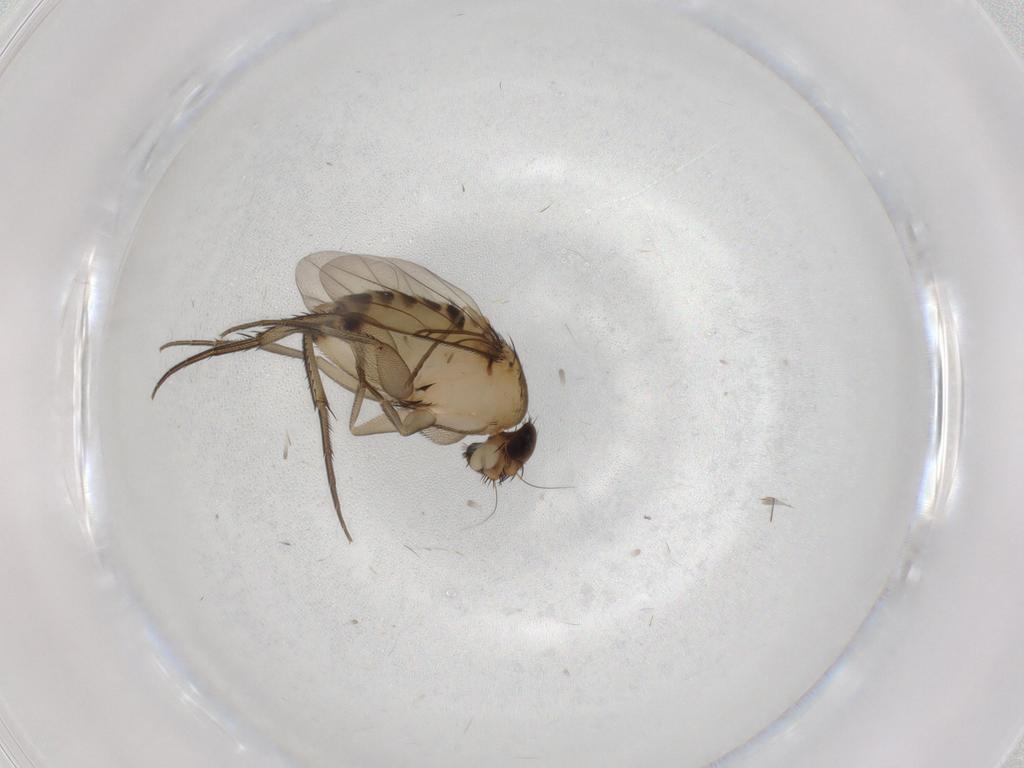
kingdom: Animalia
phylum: Arthropoda
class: Insecta
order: Diptera
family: Phoridae
